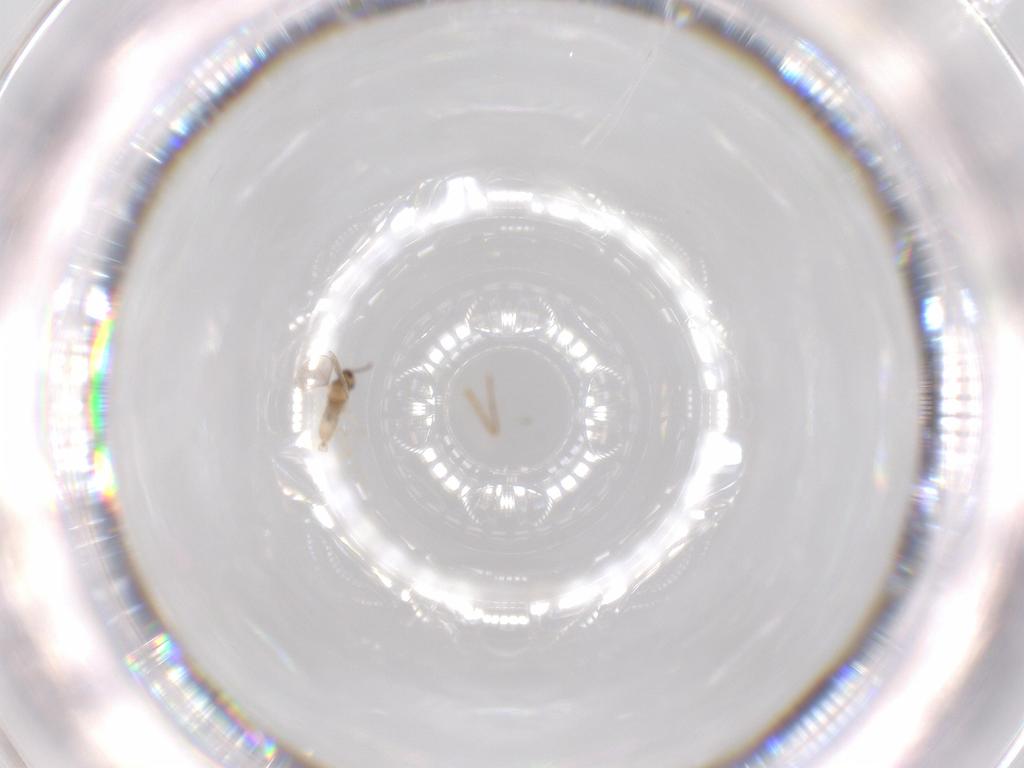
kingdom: Animalia
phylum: Arthropoda
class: Insecta
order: Diptera
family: Cecidomyiidae
